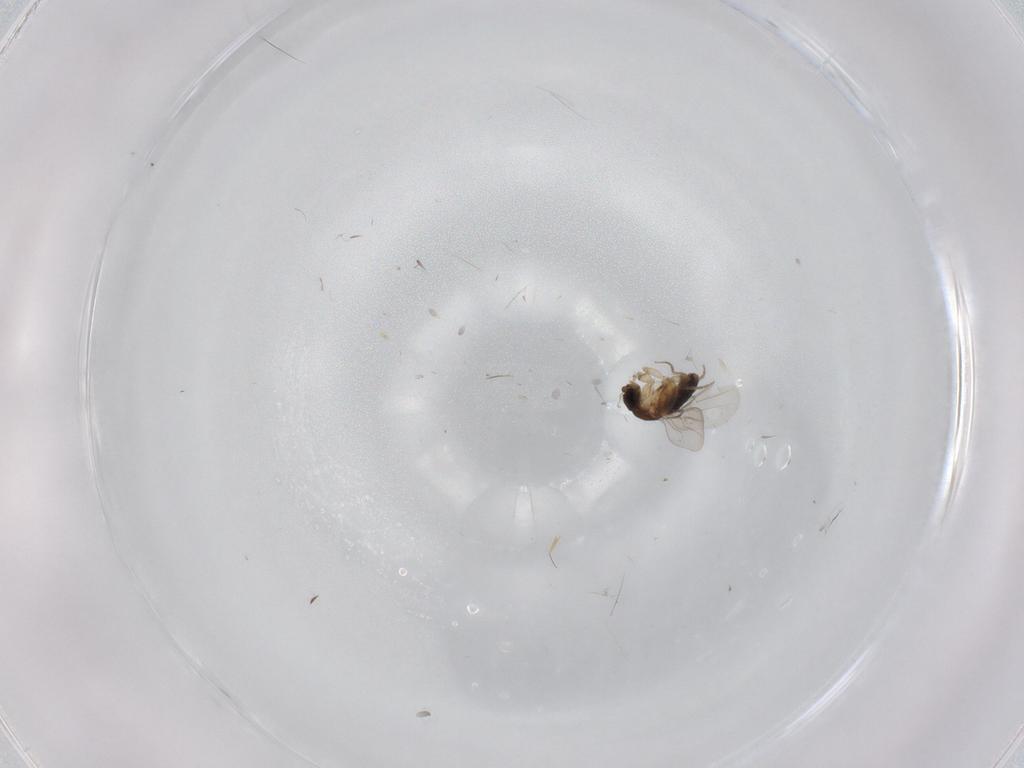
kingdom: Animalia
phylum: Arthropoda
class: Insecta
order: Diptera
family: Phoridae
